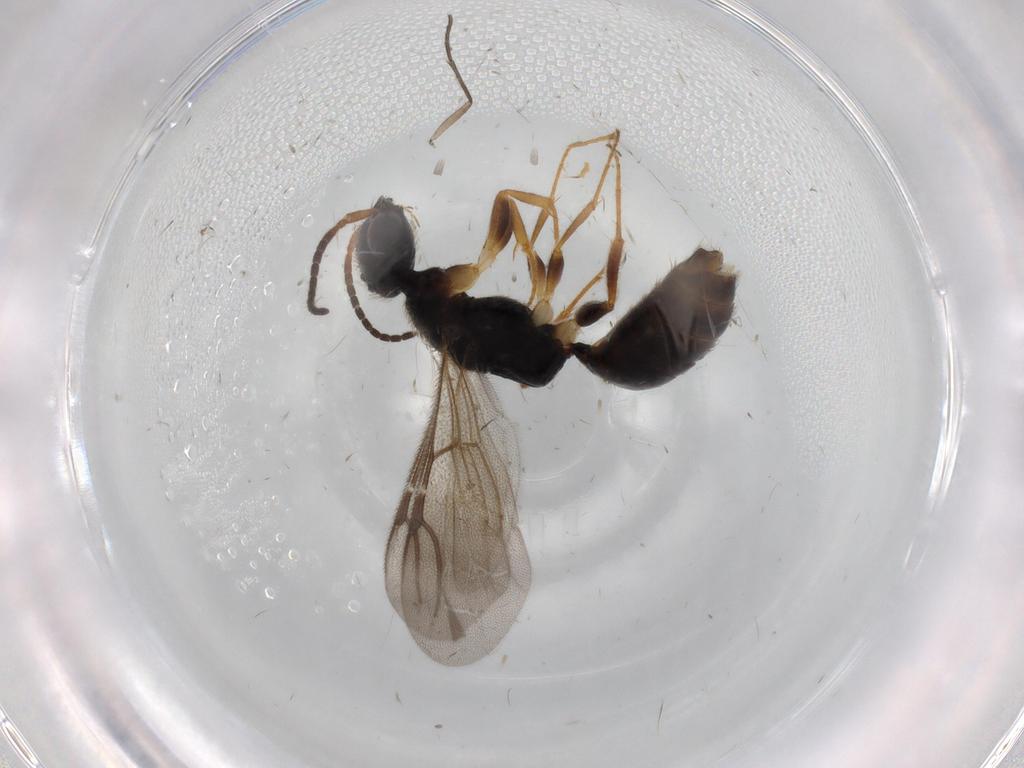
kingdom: Animalia
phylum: Arthropoda
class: Insecta
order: Hymenoptera
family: Bethylidae
